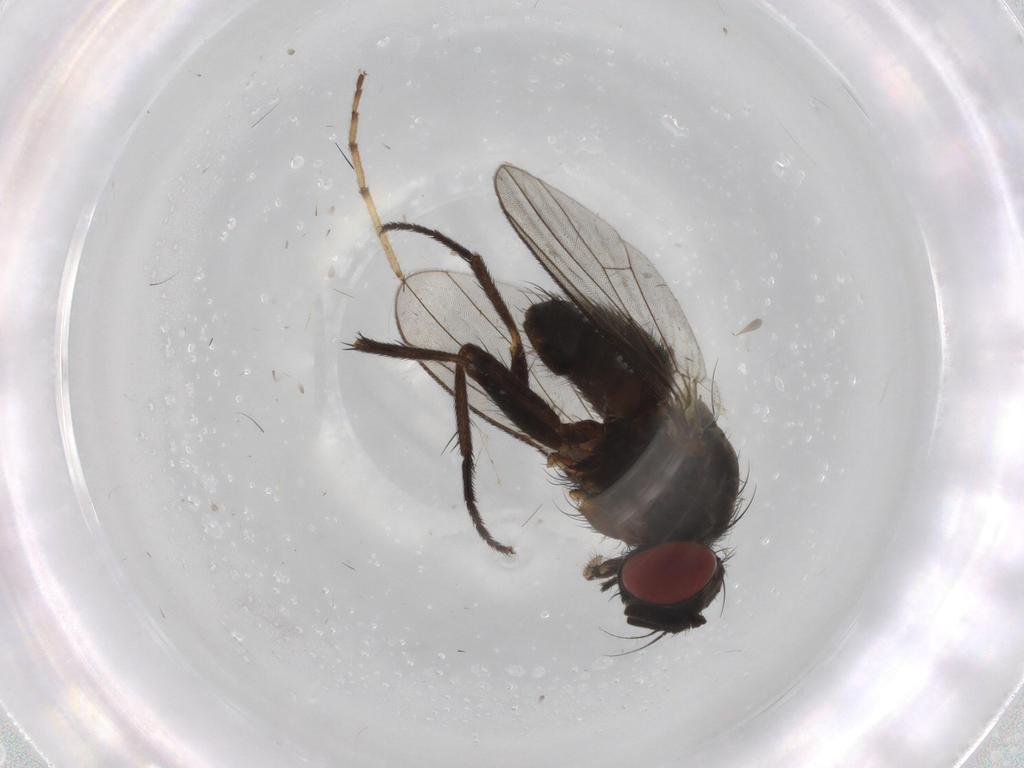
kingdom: Animalia
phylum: Arthropoda
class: Insecta
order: Diptera
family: Muscidae
